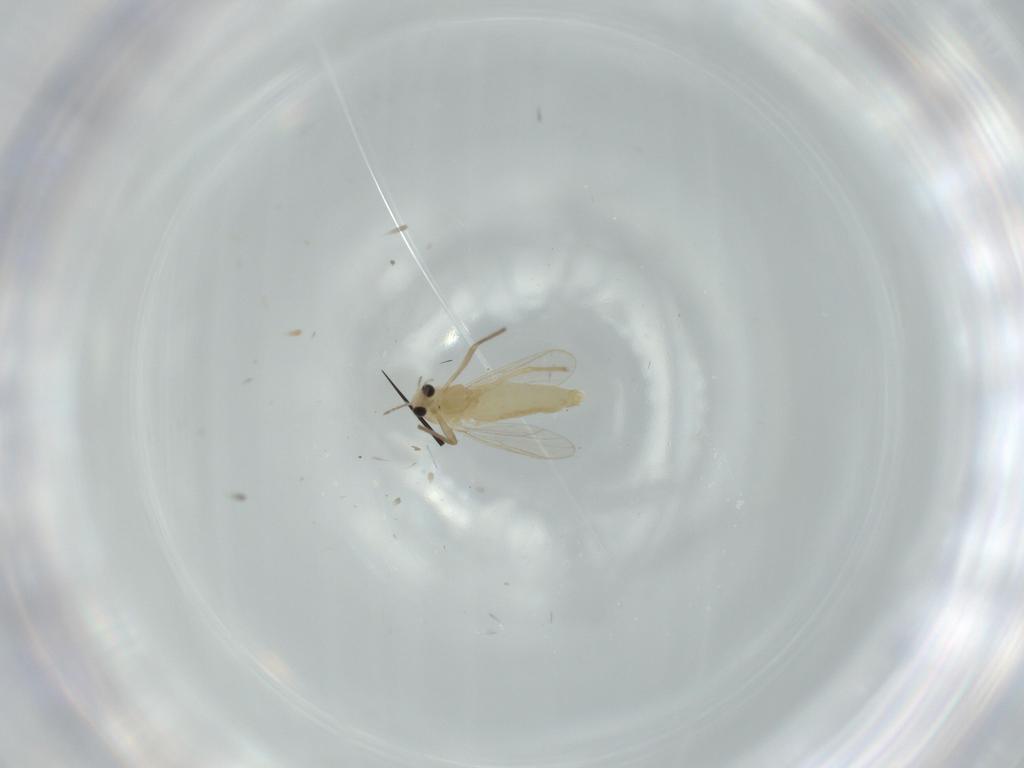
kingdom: Animalia
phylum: Arthropoda
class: Insecta
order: Diptera
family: Chironomidae
